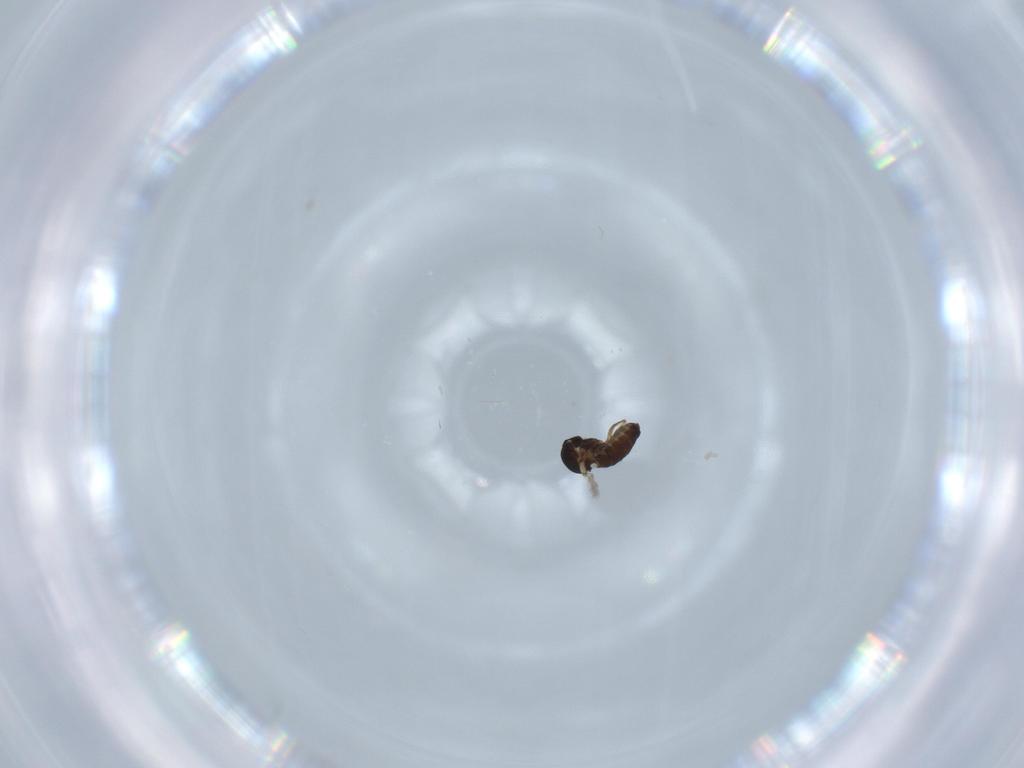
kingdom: Animalia
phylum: Arthropoda
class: Insecta
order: Diptera
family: Ceratopogonidae
